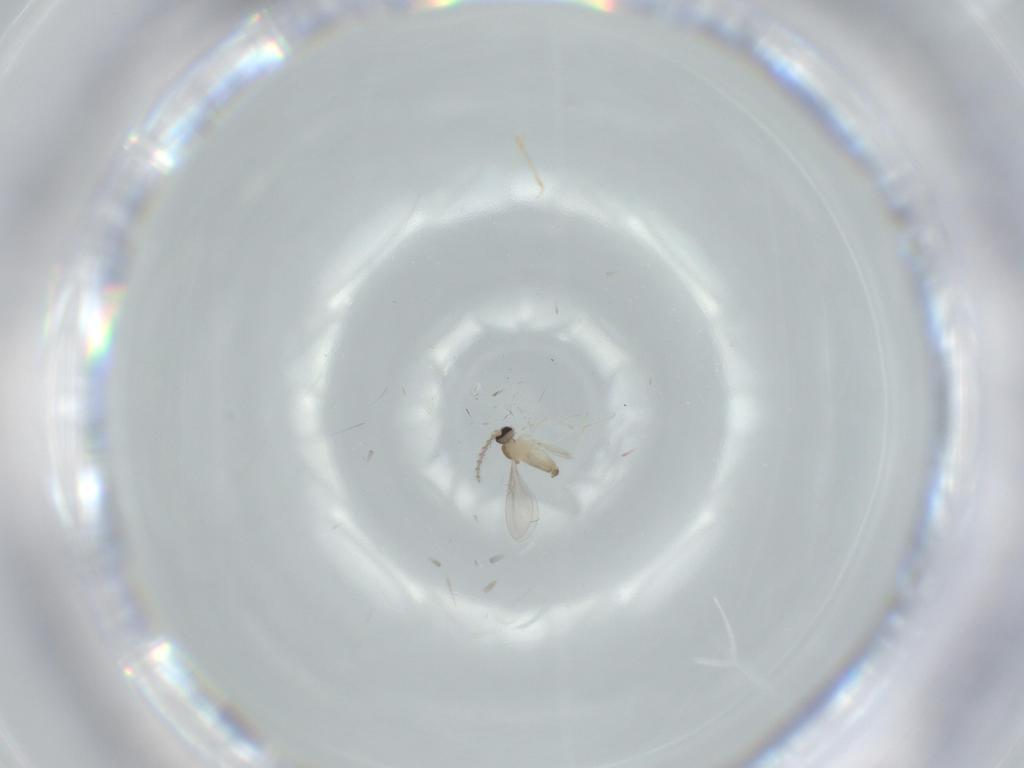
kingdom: Animalia
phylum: Arthropoda
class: Insecta
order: Diptera
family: Cecidomyiidae
